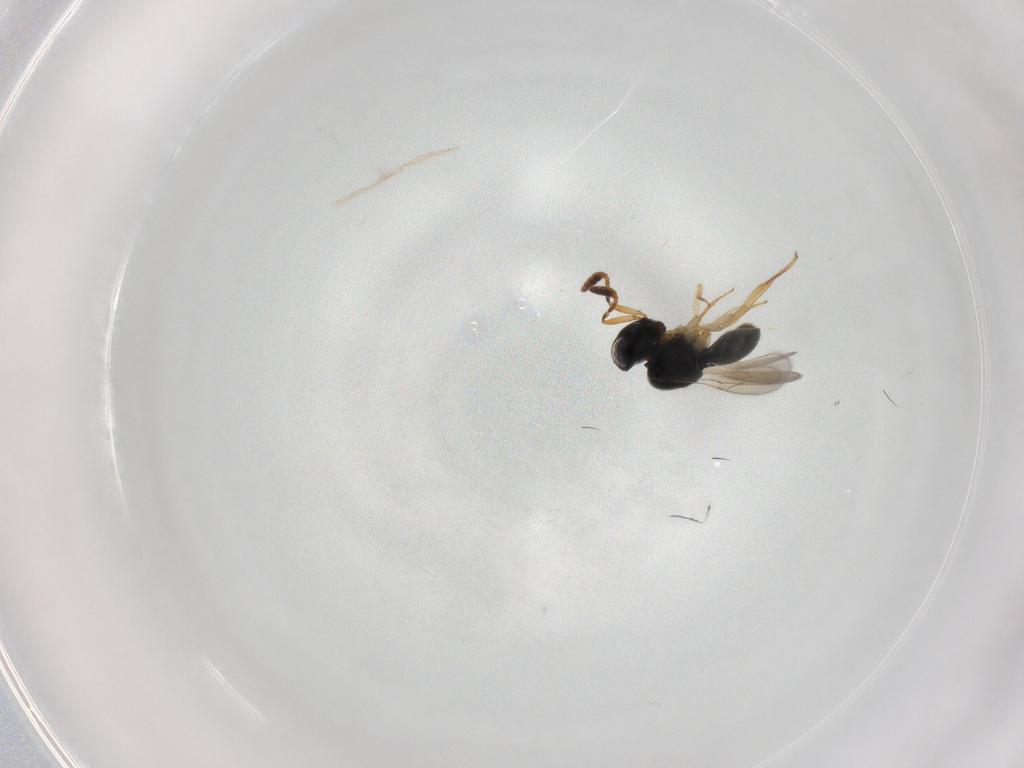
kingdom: Animalia
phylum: Arthropoda
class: Insecta
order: Hymenoptera
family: Scelionidae
